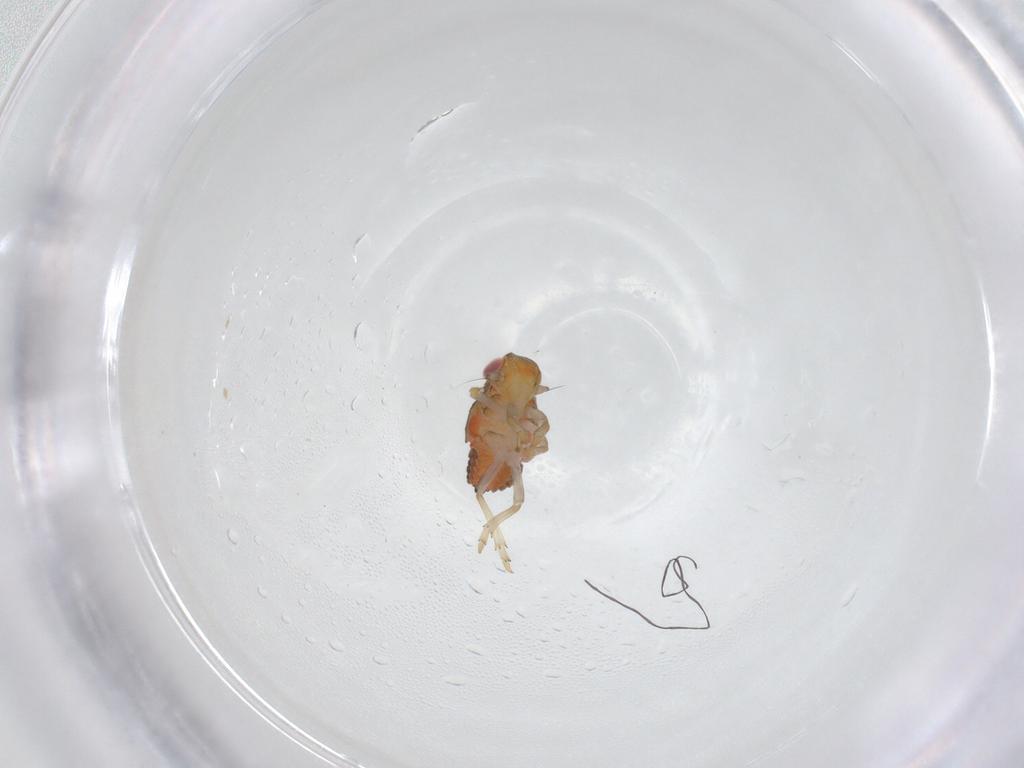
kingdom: Animalia
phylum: Arthropoda
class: Insecta
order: Hemiptera
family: Issidae
